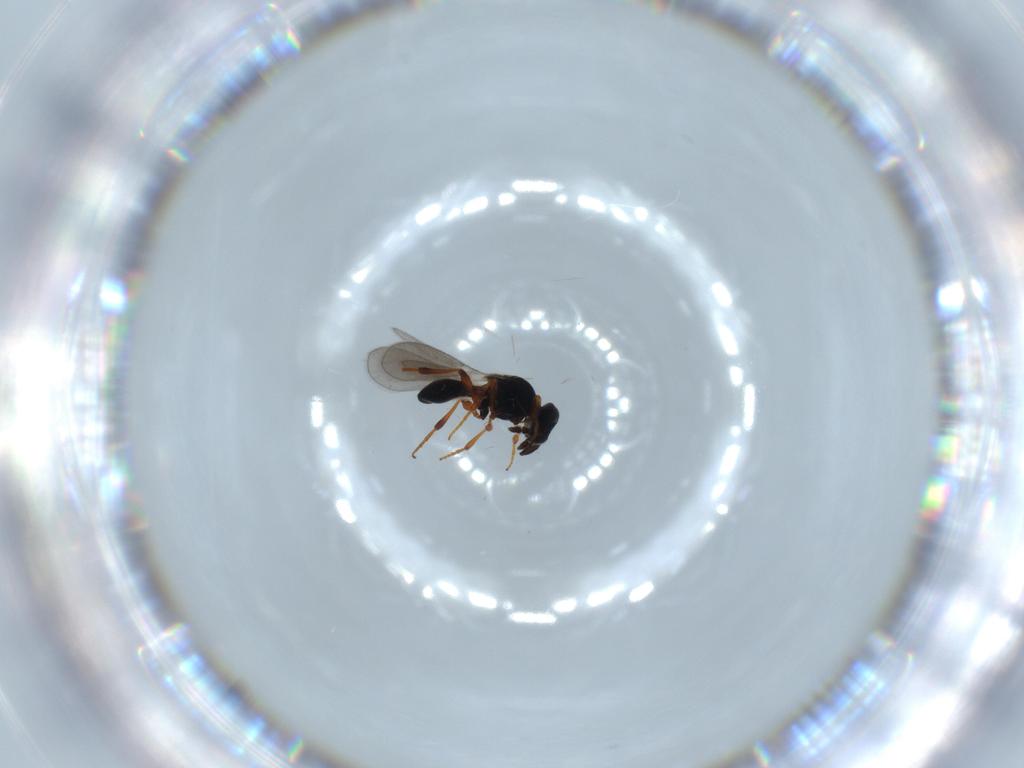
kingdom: Animalia
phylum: Arthropoda
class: Insecta
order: Hymenoptera
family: Platygastridae
